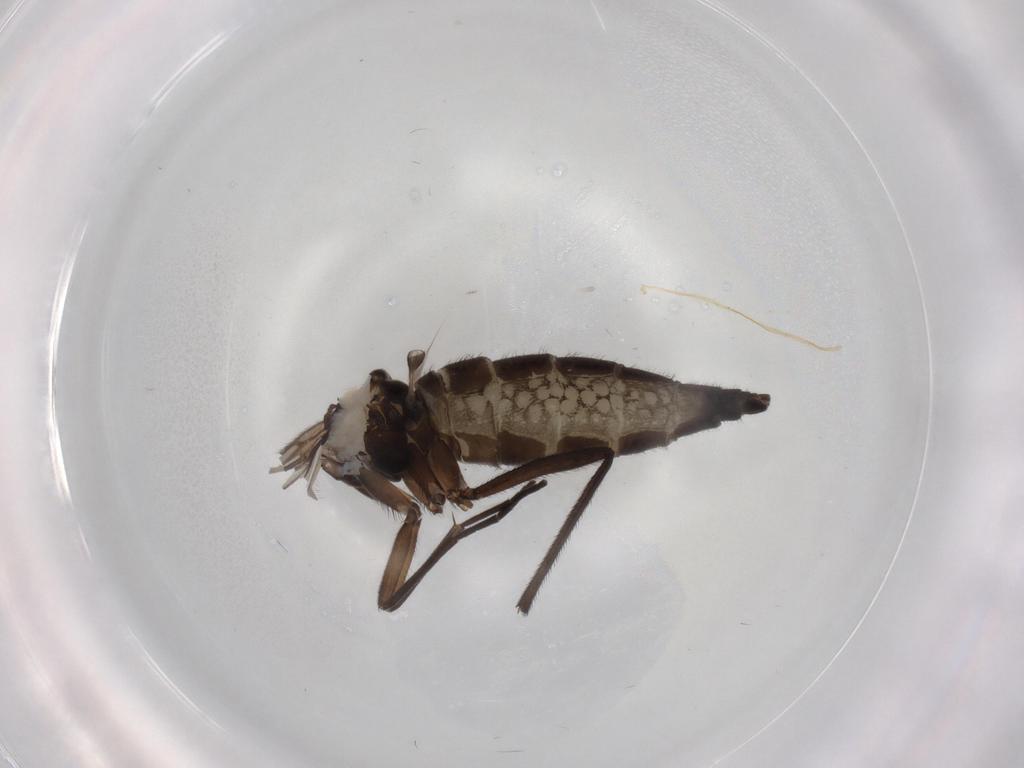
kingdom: Animalia
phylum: Arthropoda
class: Insecta
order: Diptera
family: Sciaridae
